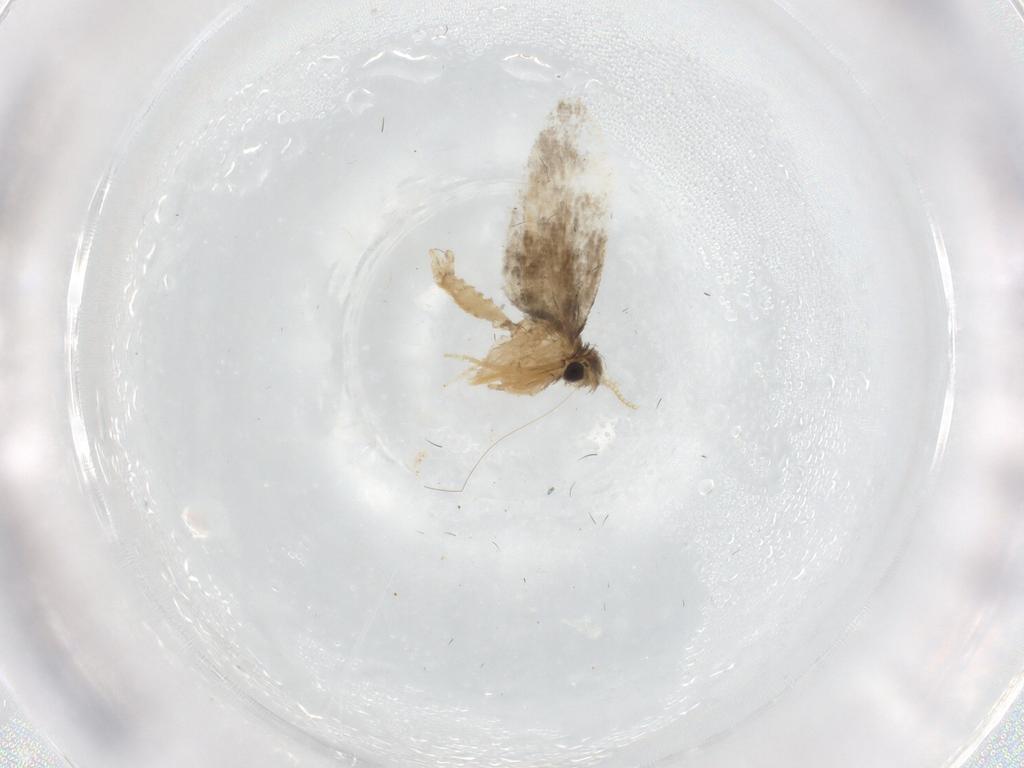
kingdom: Animalia
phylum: Arthropoda
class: Insecta
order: Lepidoptera
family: Psychidae
